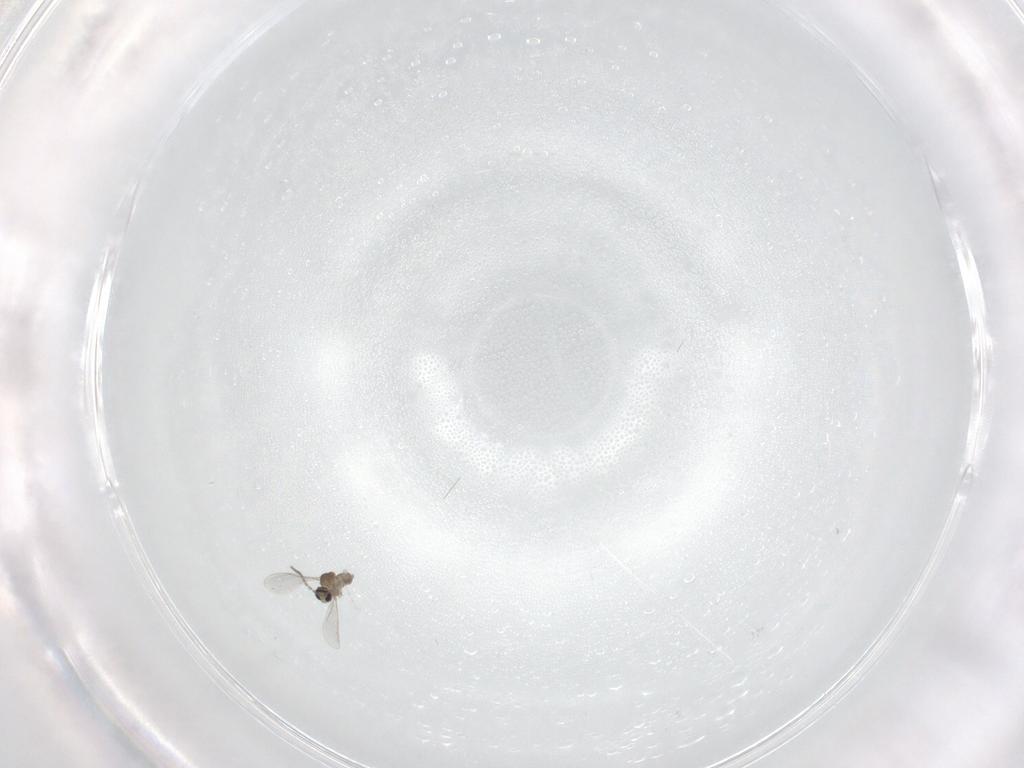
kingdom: Animalia
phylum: Arthropoda
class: Insecta
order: Diptera
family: Cecidomyiidae
